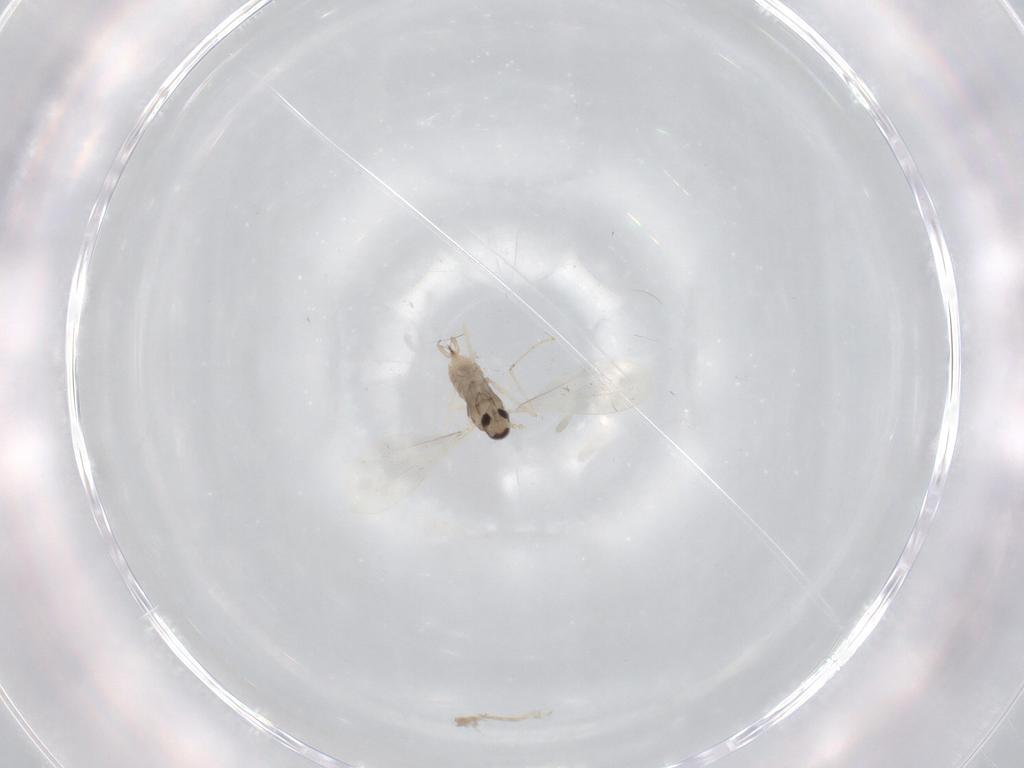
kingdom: Animalia
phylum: Arthropoda
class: Insecta
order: Diptera
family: Cecidomyiidae
